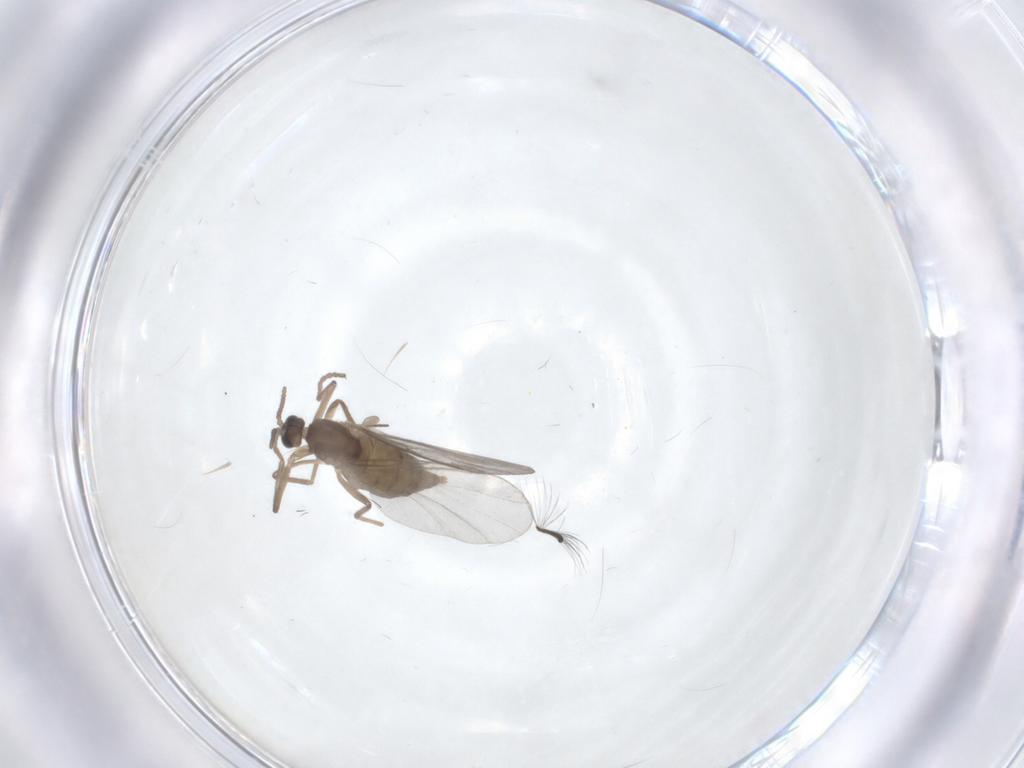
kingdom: Animalia
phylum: Arthropoda
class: Insecta
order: Diptera
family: Cecidomyiidae
